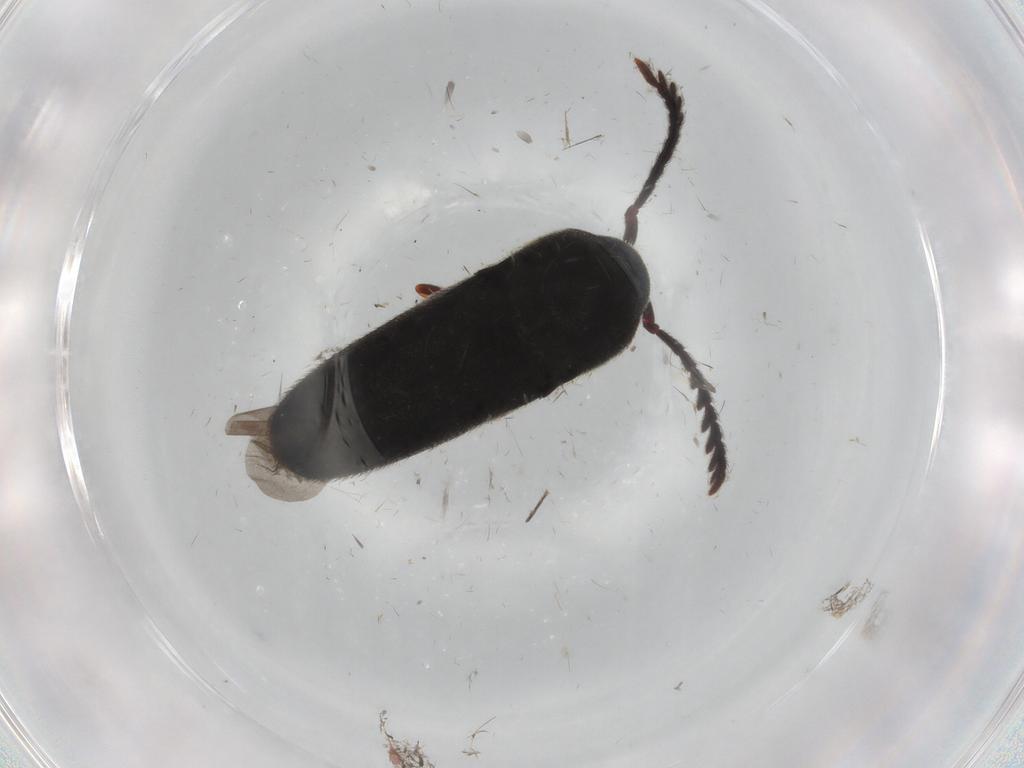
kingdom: Animalia
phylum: Arthropoda
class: Insecta
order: Coleoptera
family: Eucnemidae
